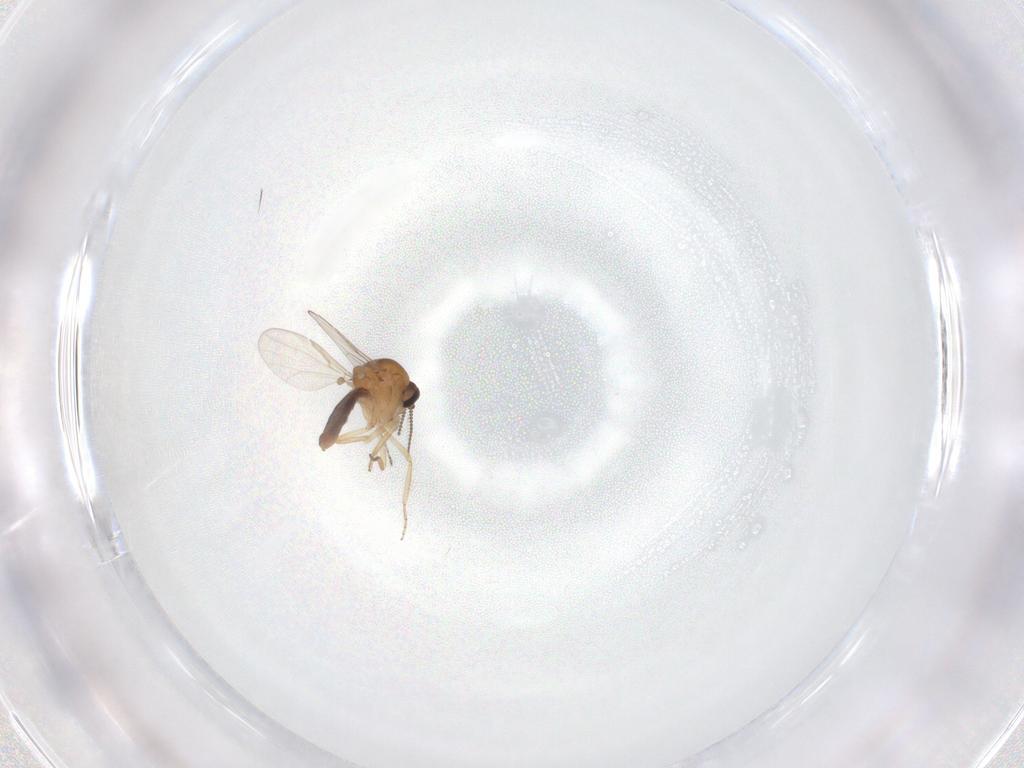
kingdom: Animalia
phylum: Arthropoda
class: Insecta
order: Diptera
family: Ceratopogonidae
